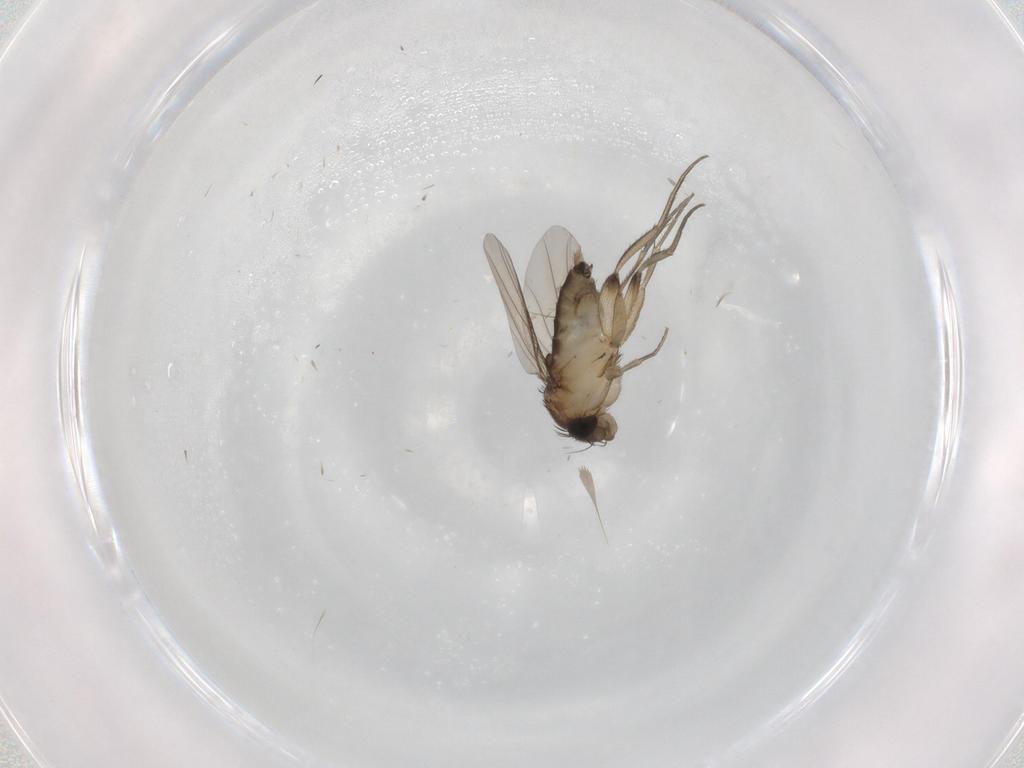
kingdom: Animalia
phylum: Arthropoda
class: Insecta
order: Diptera
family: Phoridae
